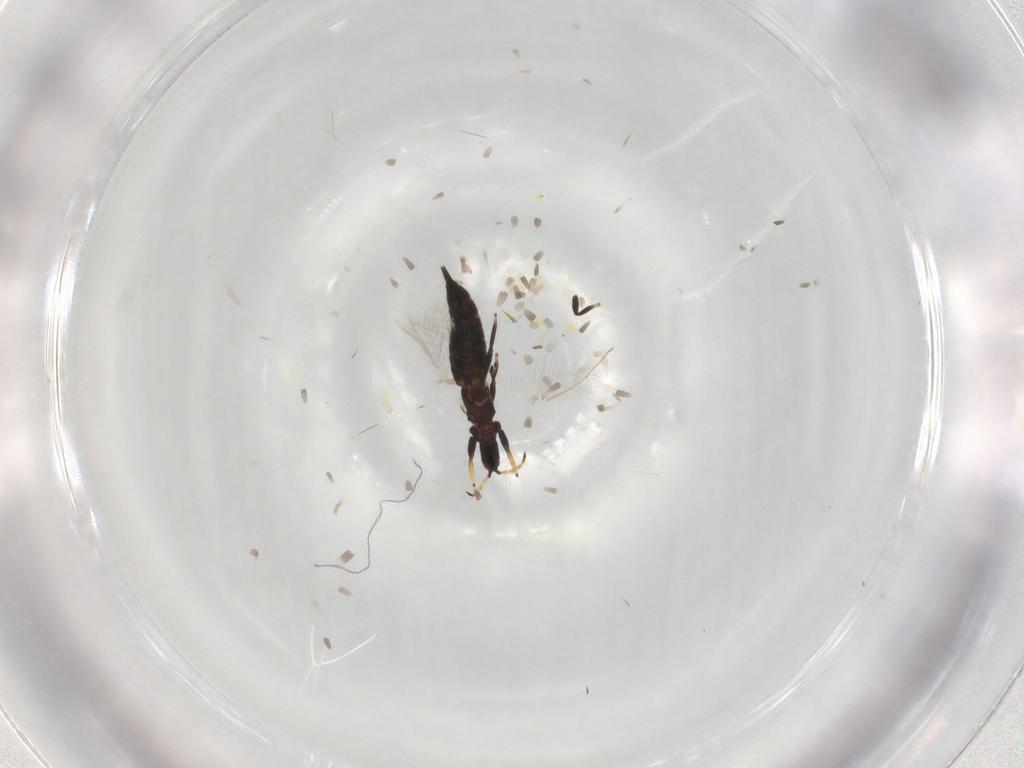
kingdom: Animalia
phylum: Arthropoda
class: Insecta
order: Thysanoptera
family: Phlaeothripidae
